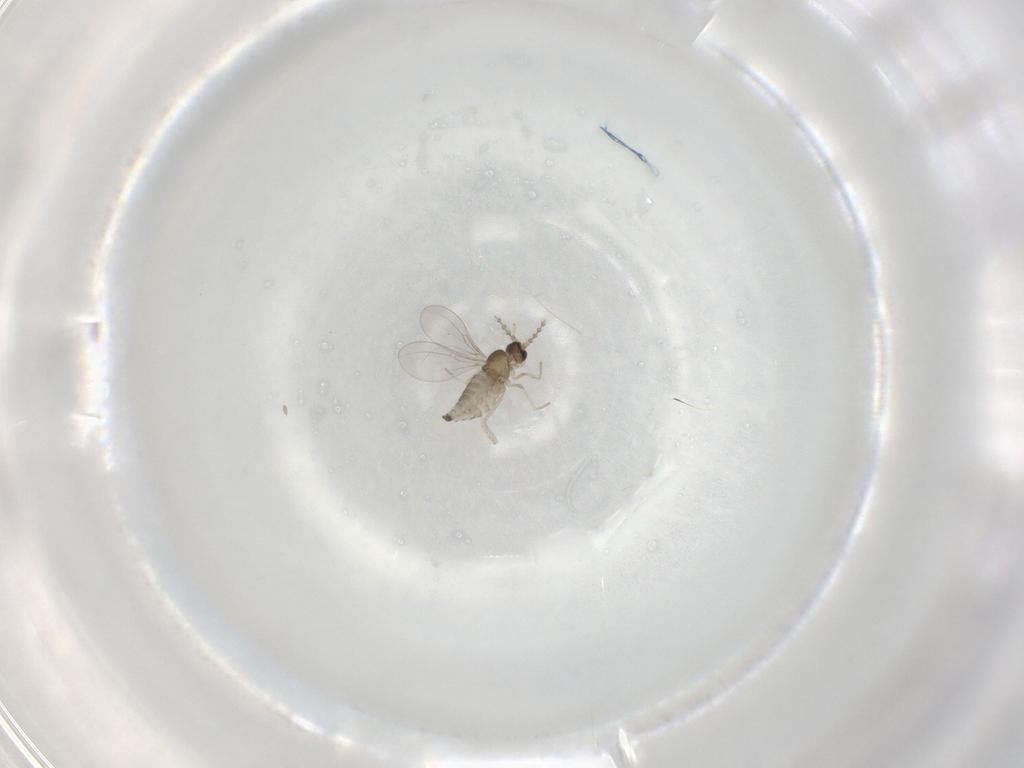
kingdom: Animalia
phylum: Arthropoda
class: Insecta
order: Diptera
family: Cecidomyiidae
